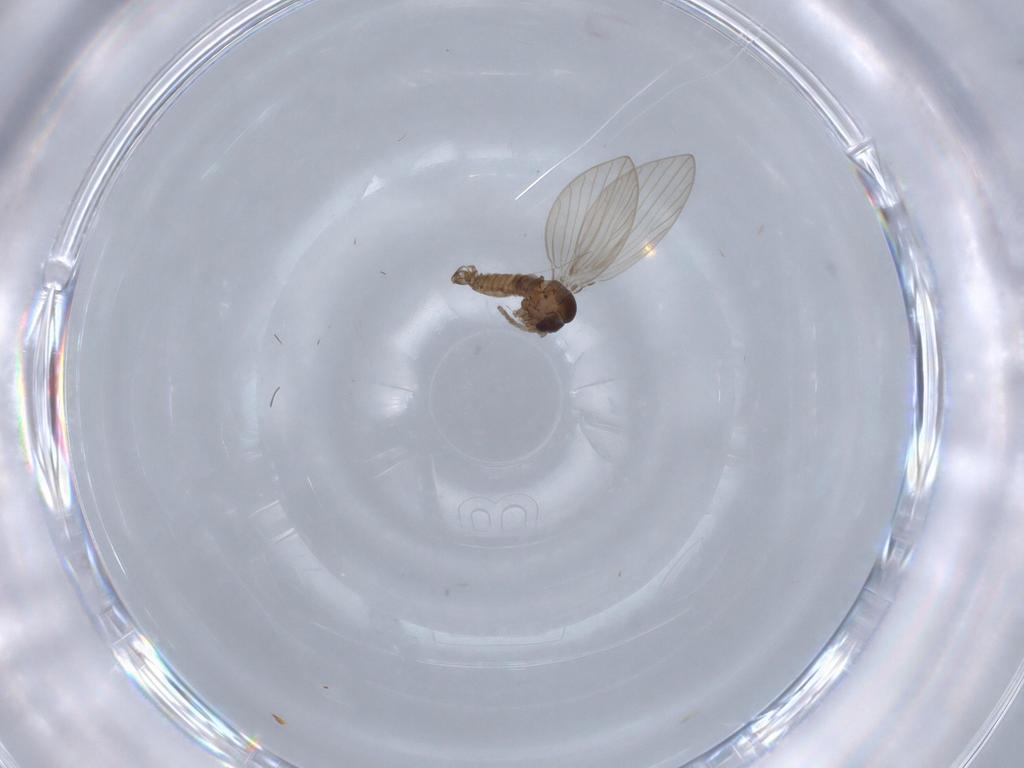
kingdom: Animalia
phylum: Arthropoda
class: Insecta
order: Diptera
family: Psychodidae
